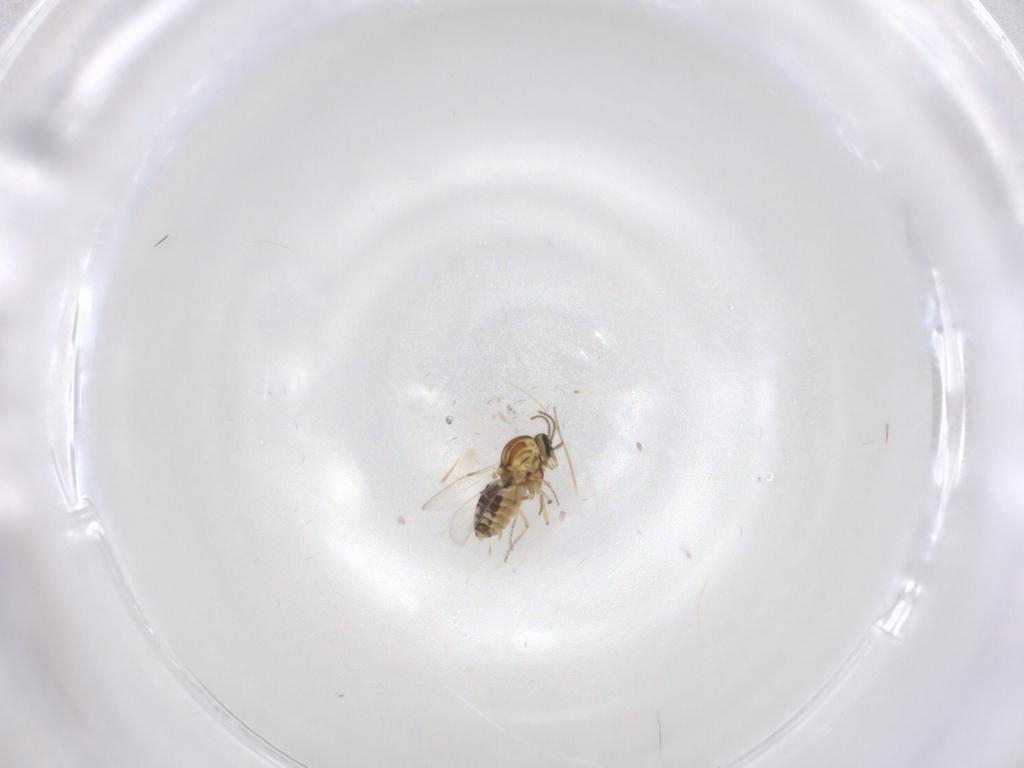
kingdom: Animalia
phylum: Arthropoda
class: Insecta
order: Diptera
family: Ceratopogonidae
